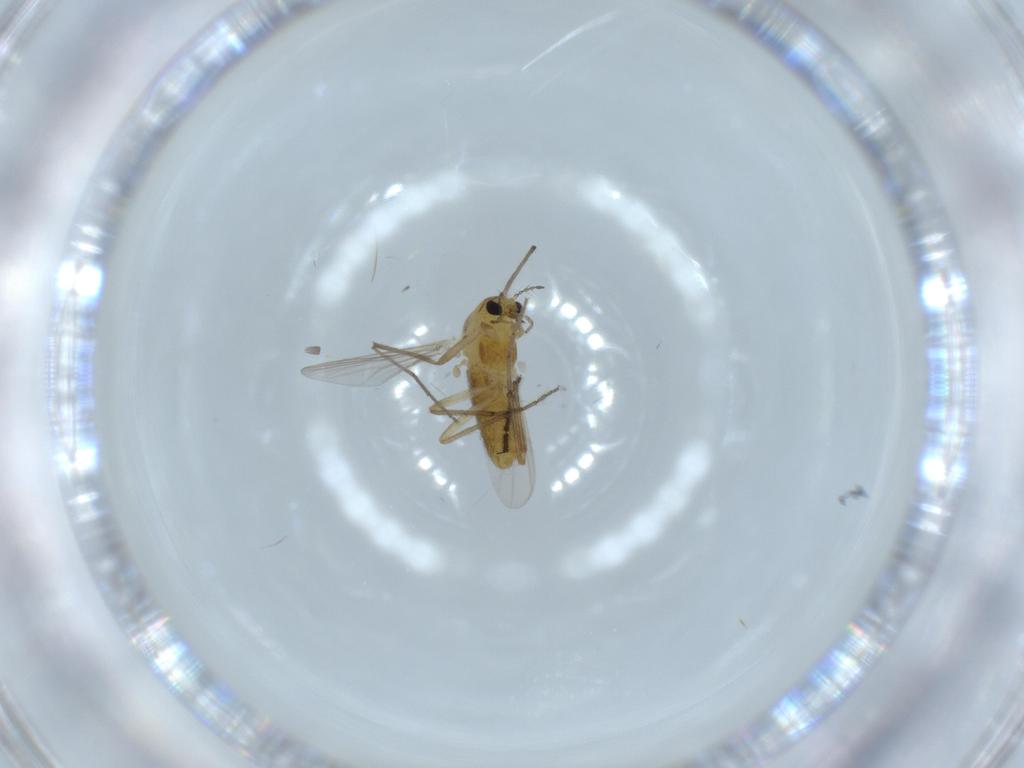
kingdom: Animalia
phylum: Arthropoda
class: Insecta
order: Diptera
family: Chironomidae
